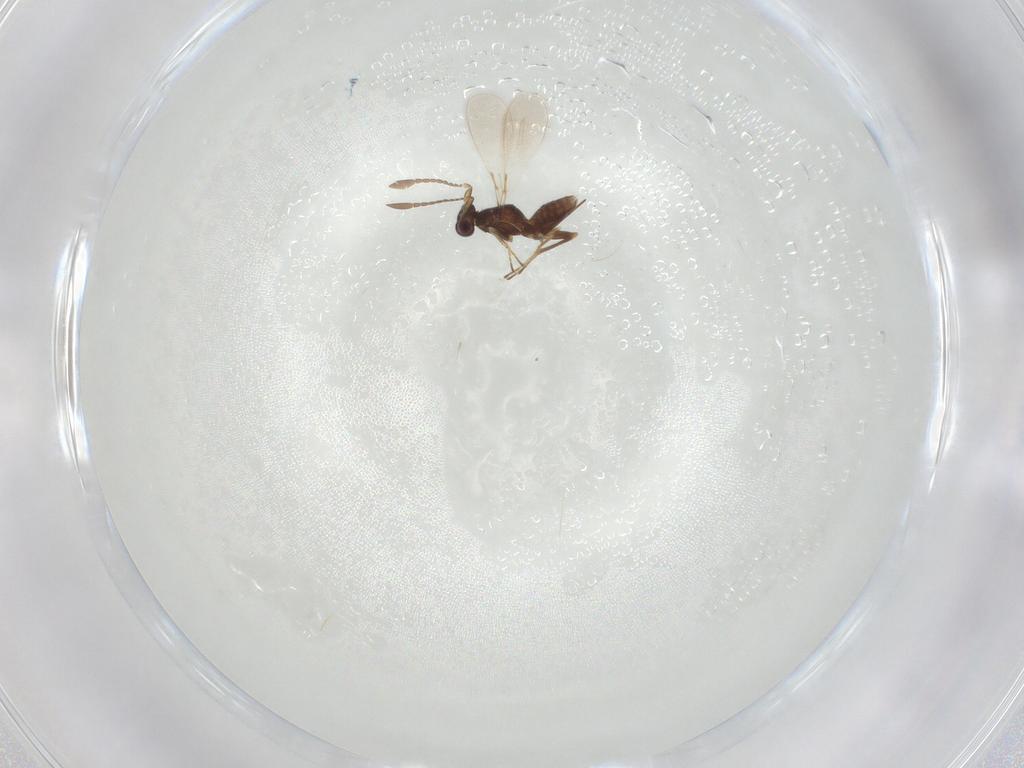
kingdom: Animalia
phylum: Arthropoda
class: Insecta
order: Hymenoptera
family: Mymaridae
